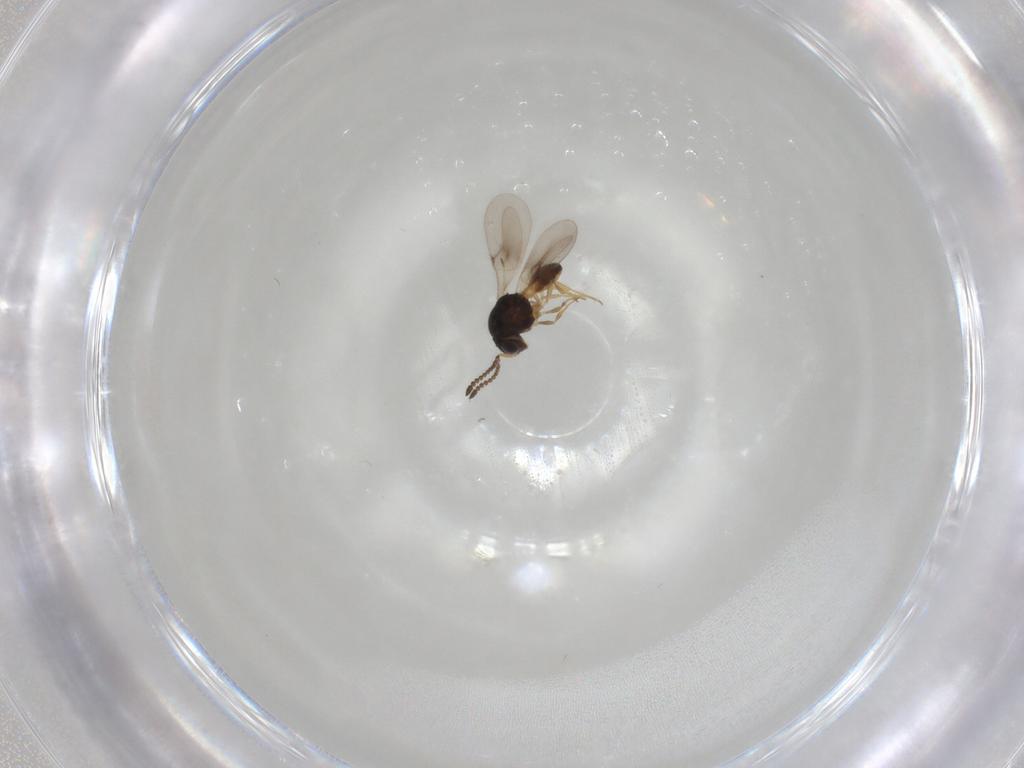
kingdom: Animalia
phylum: Arthropoda
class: Insecta
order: Hymenoptera
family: Scelionidae
